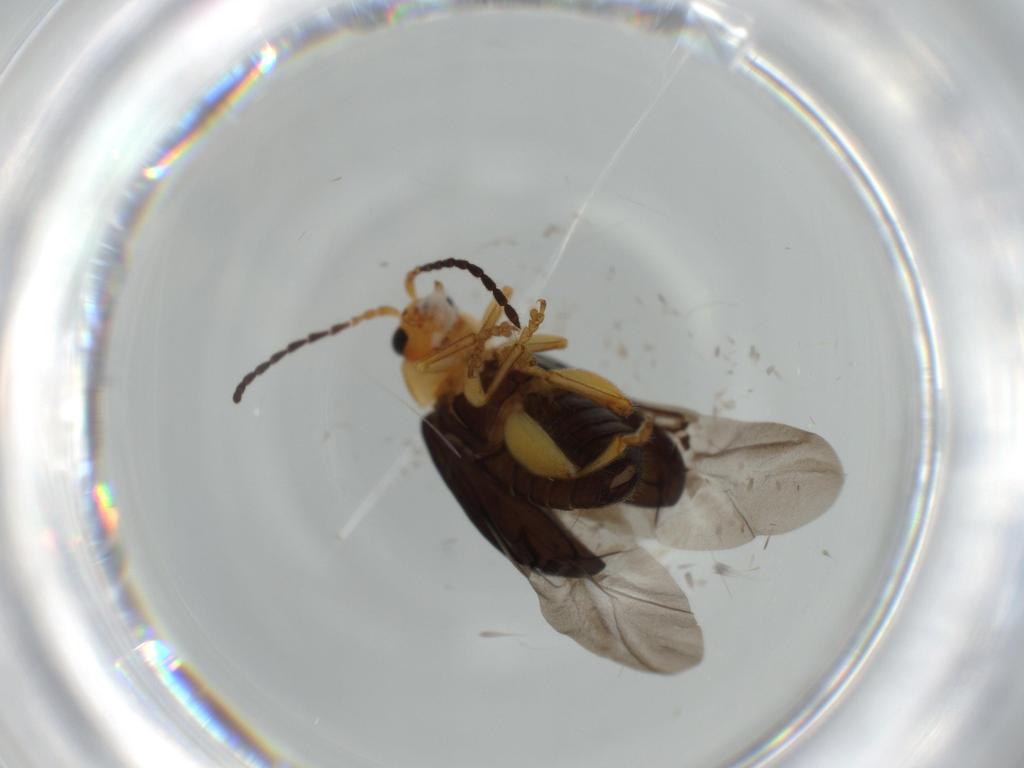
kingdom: Animalia
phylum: Arthropoda
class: Insecta
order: Coleoptera
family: Chrysomelidae
